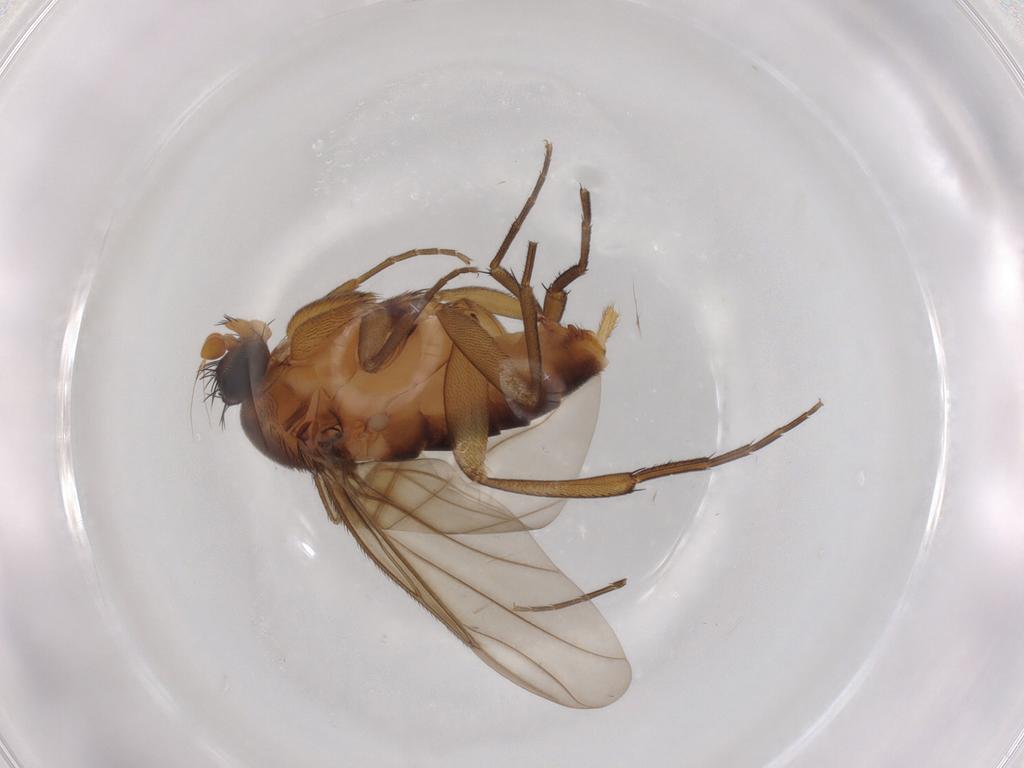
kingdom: Animalia
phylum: Arthropoda
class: Insecta
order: Diptera
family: Phoridae
